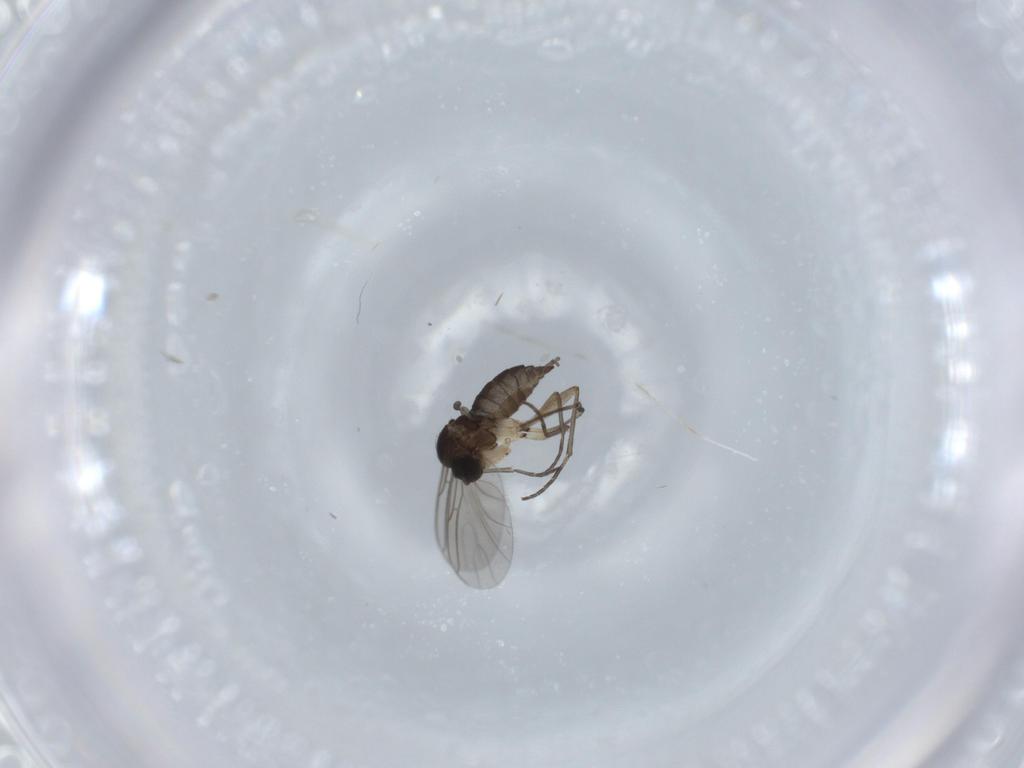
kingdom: Animalia
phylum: Arthropoda
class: Insecta
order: Diptera
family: Sciaridae
